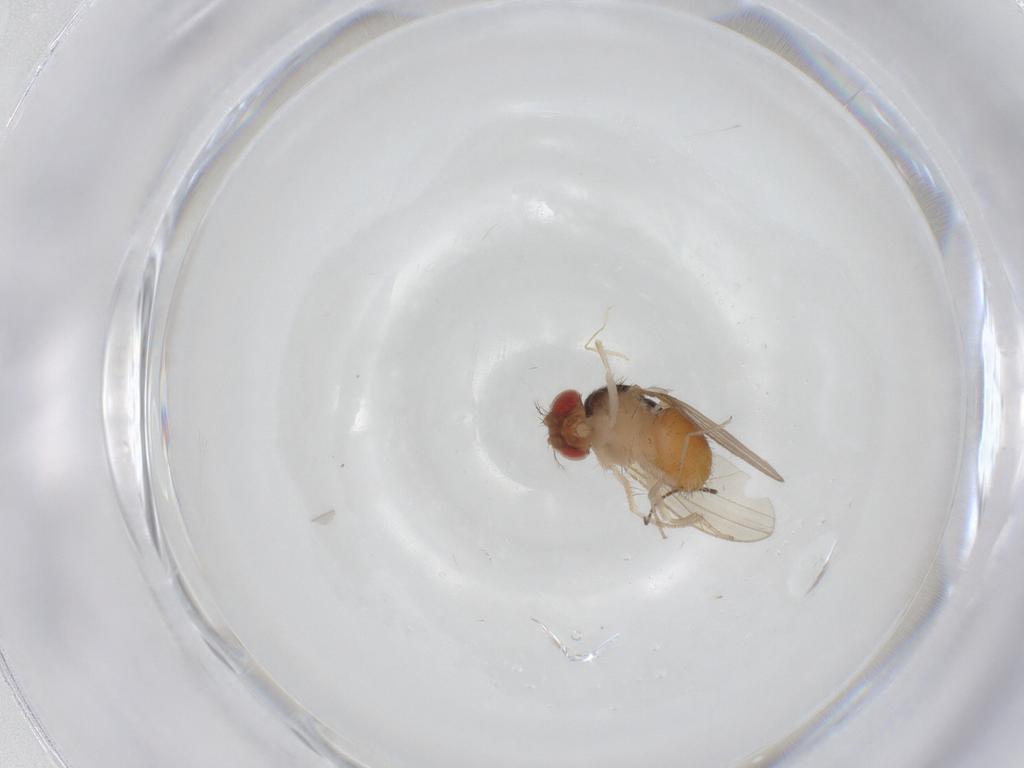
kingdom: Animalia
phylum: Arthropoda
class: Insecta
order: Diptera
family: Drosophilidae
